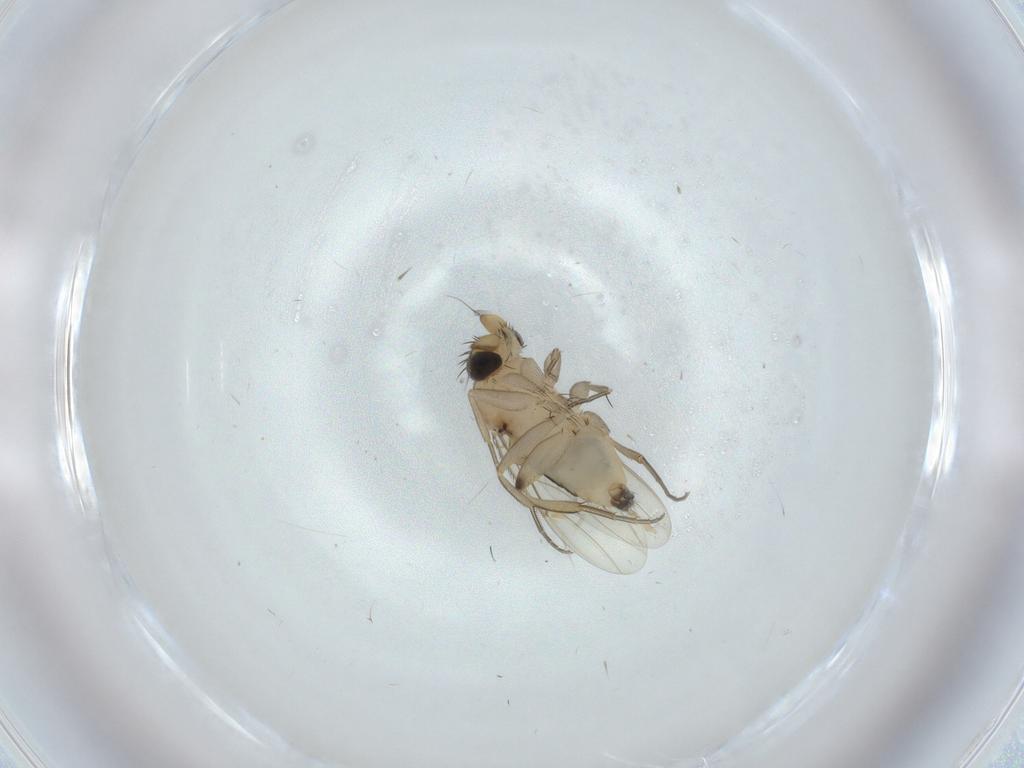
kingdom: Animalia
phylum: Arthropoda
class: Insecta
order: Diptera
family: Phoridae
